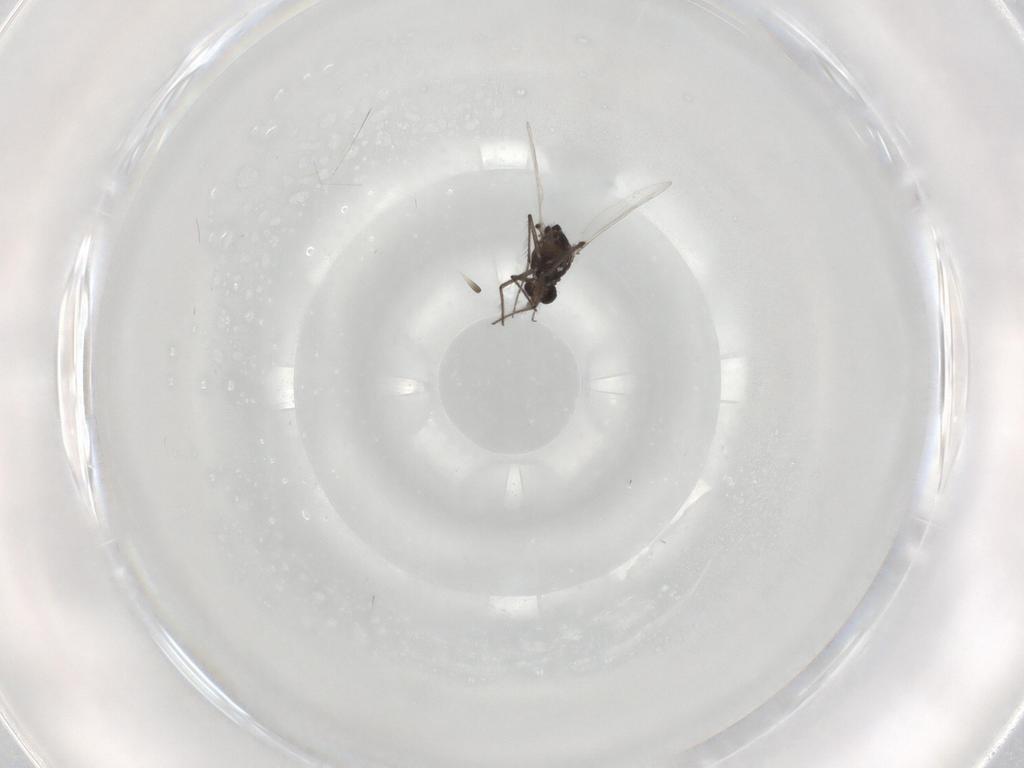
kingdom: Animalia
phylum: Arthropoda
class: Insecta
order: Diptera
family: Chironomidae
